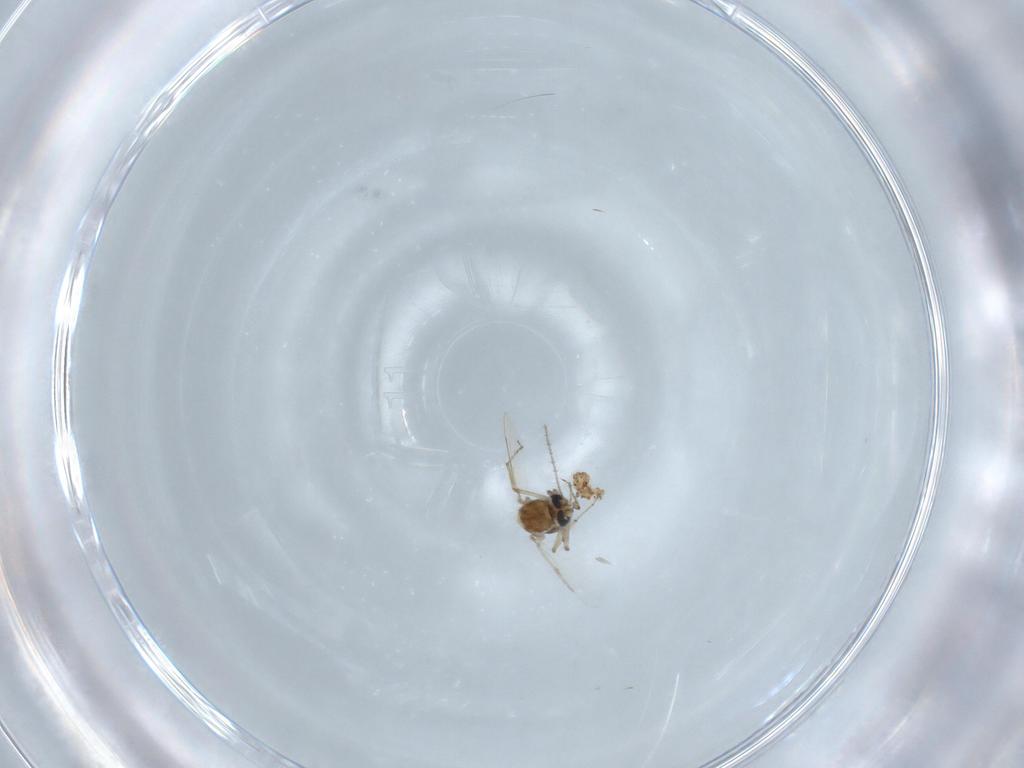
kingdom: Animalia
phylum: Arthropoda
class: Insecta
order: Diptera
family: Ceratopogonidae
